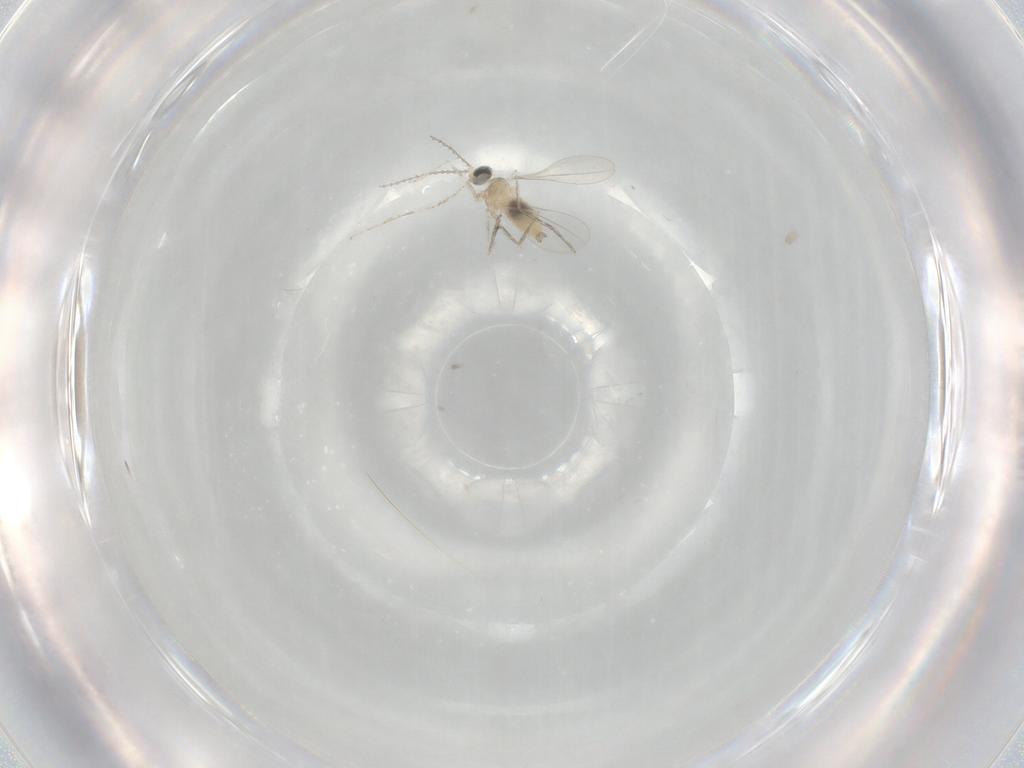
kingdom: Animalia
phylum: Arthropoda
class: Insecta
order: Diptera
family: Cecidomyiidae
